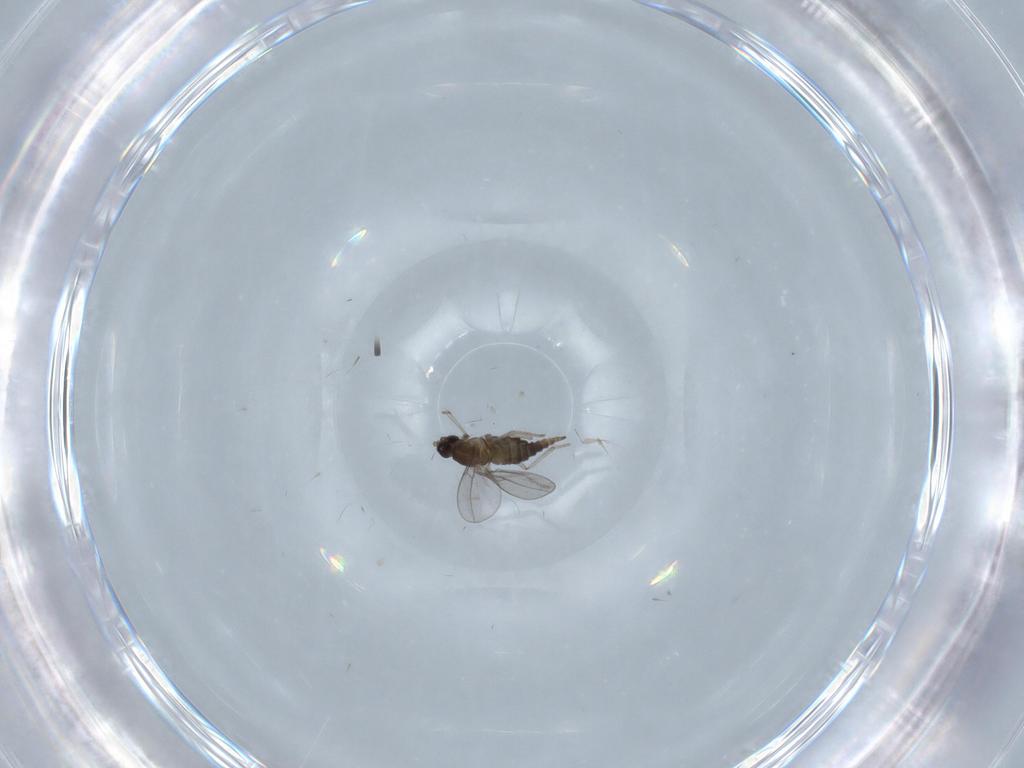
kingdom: Animalia
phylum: Arthropoda
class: Insecta
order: Diptera
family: Cecidomyiidae
